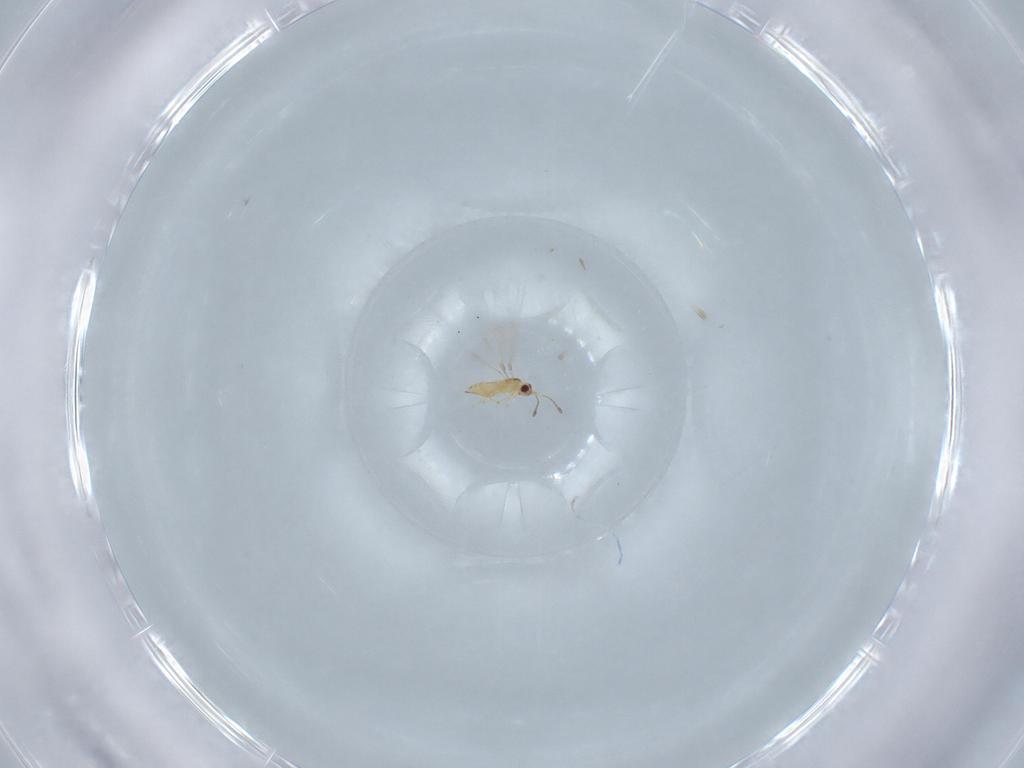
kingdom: Animalia
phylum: Arthropoda
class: Insecta
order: Hymenoptera
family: Mymaridae
